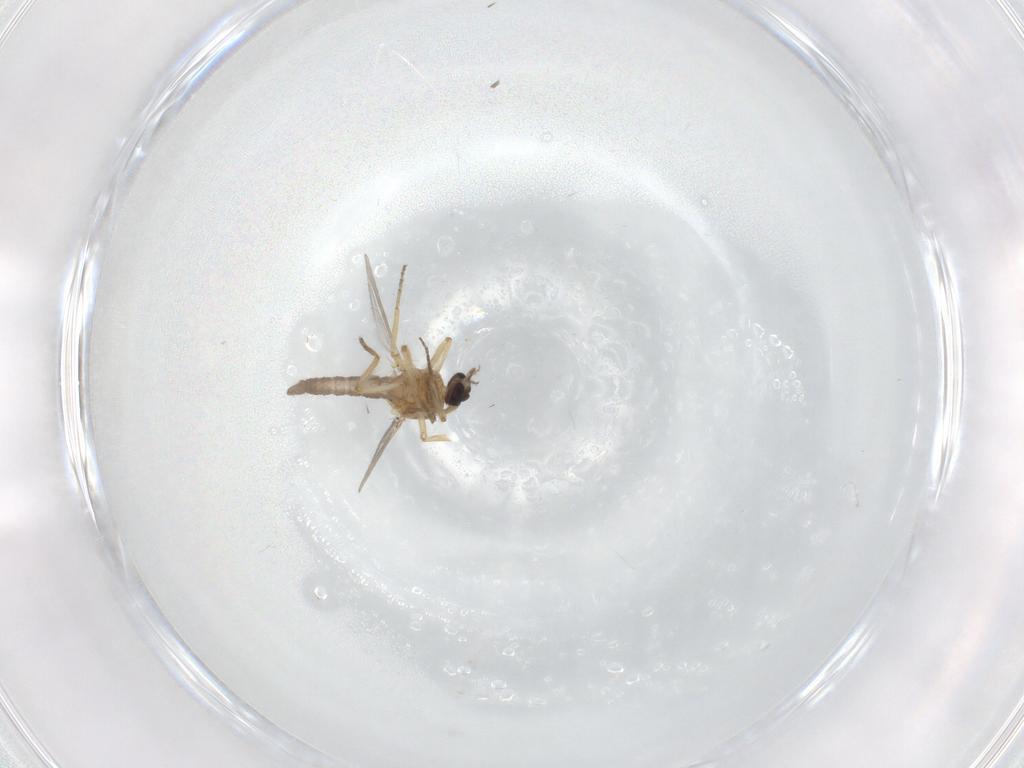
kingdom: Animalia
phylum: Arthropoda
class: Insecta
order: Diptera
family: Ceratopogonidae
